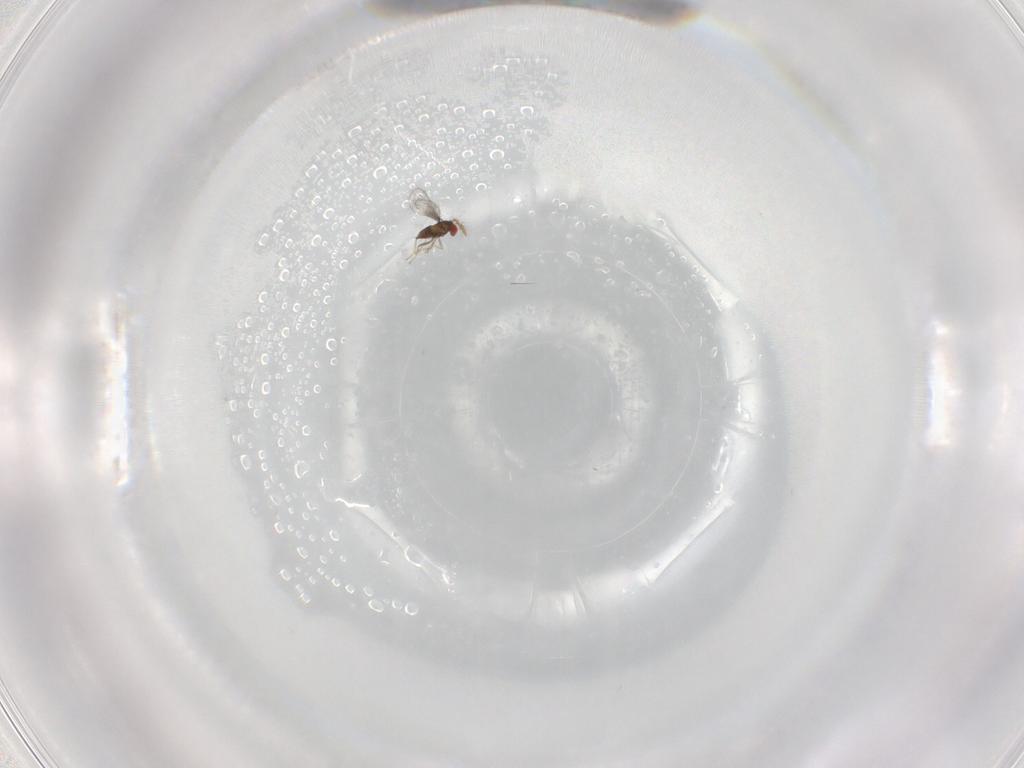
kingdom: Animalia
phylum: Arthropoda
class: Insecta
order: Hymenoptera
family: Trichogrammatidae
